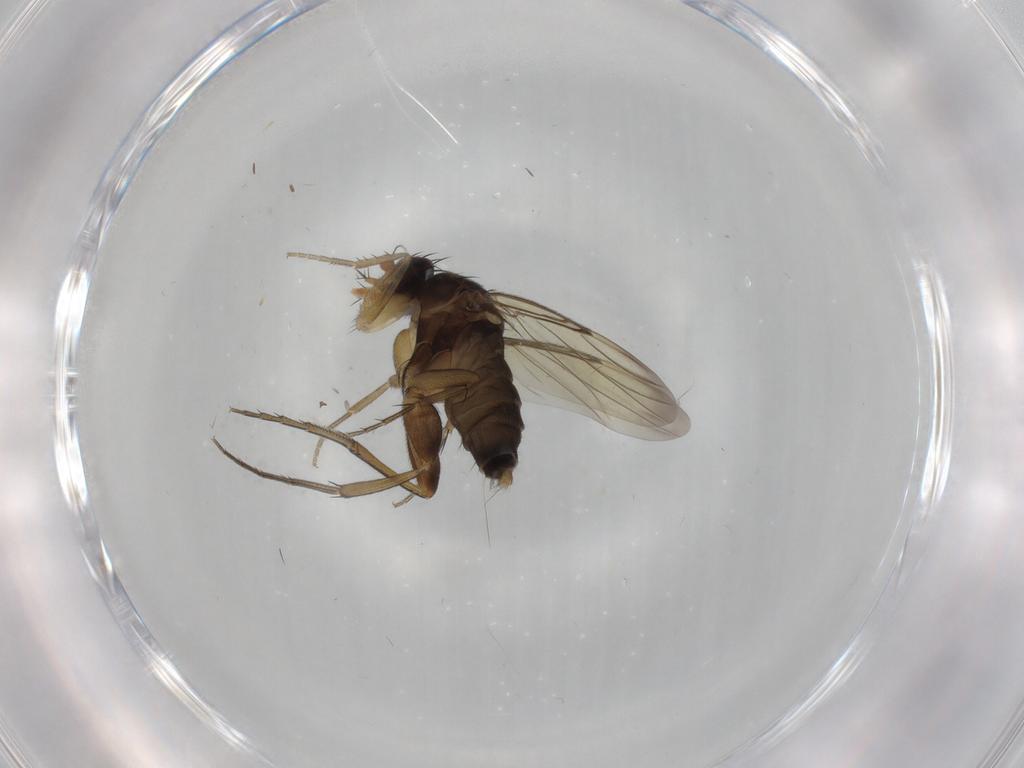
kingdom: Animalia
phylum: Arthropoda
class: Insecta
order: Diptera
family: Phoridae
